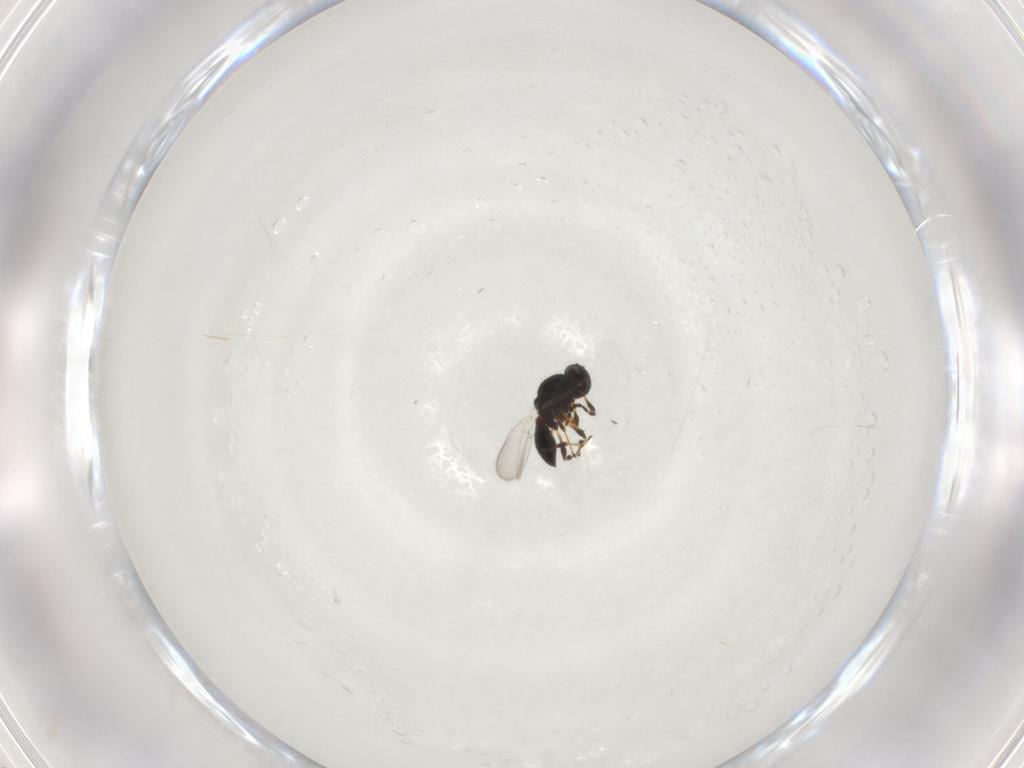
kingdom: Animalia
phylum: Arthropoda
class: Insecta
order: Hymenoptera
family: Platygastridae
